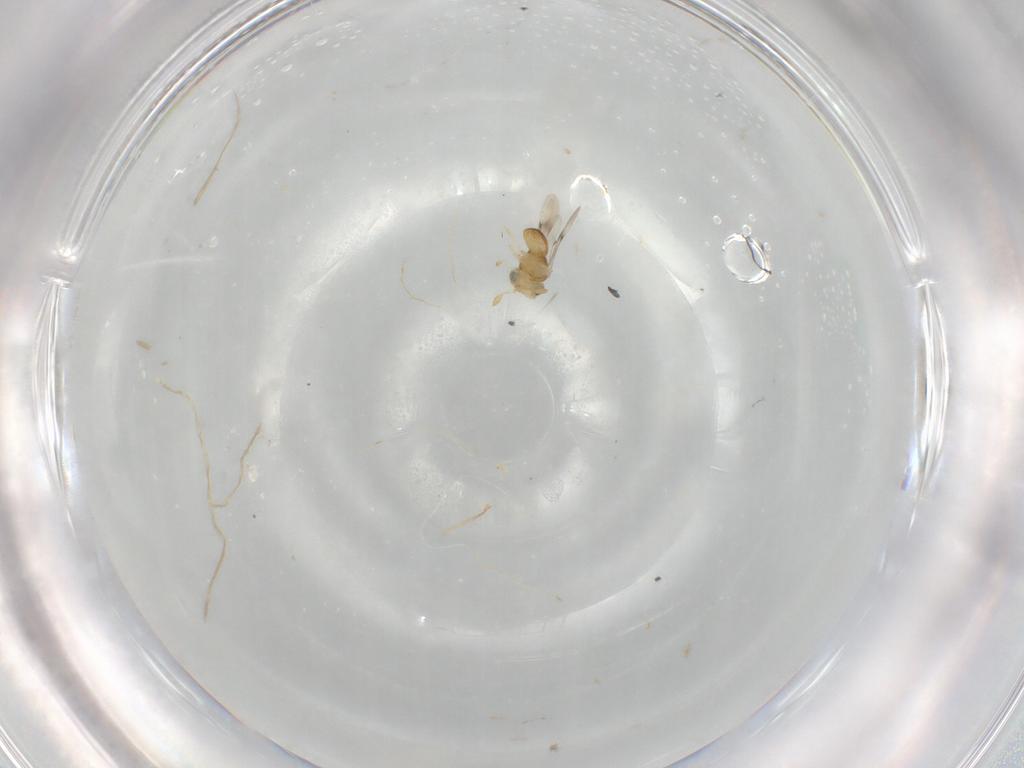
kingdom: Animalia
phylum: Arthropoda
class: Insecta
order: Hymenoptera
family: Scelionidae
